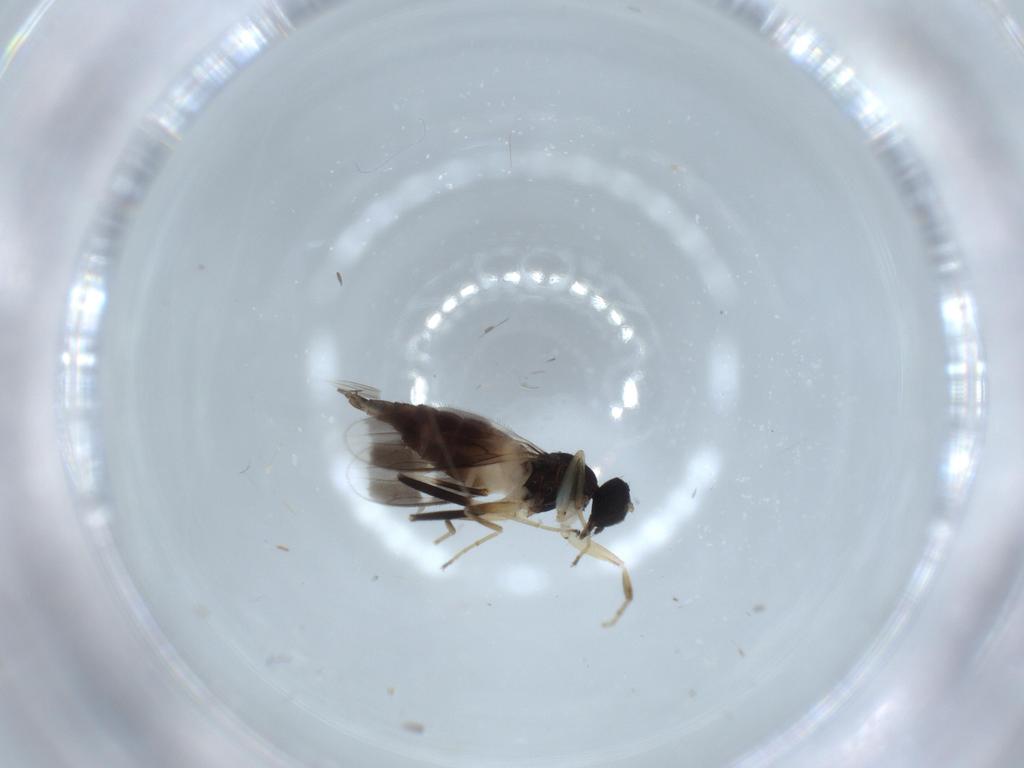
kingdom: Animalia
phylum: Arthropoda
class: Insecta
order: Diptera
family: Hybotidae
